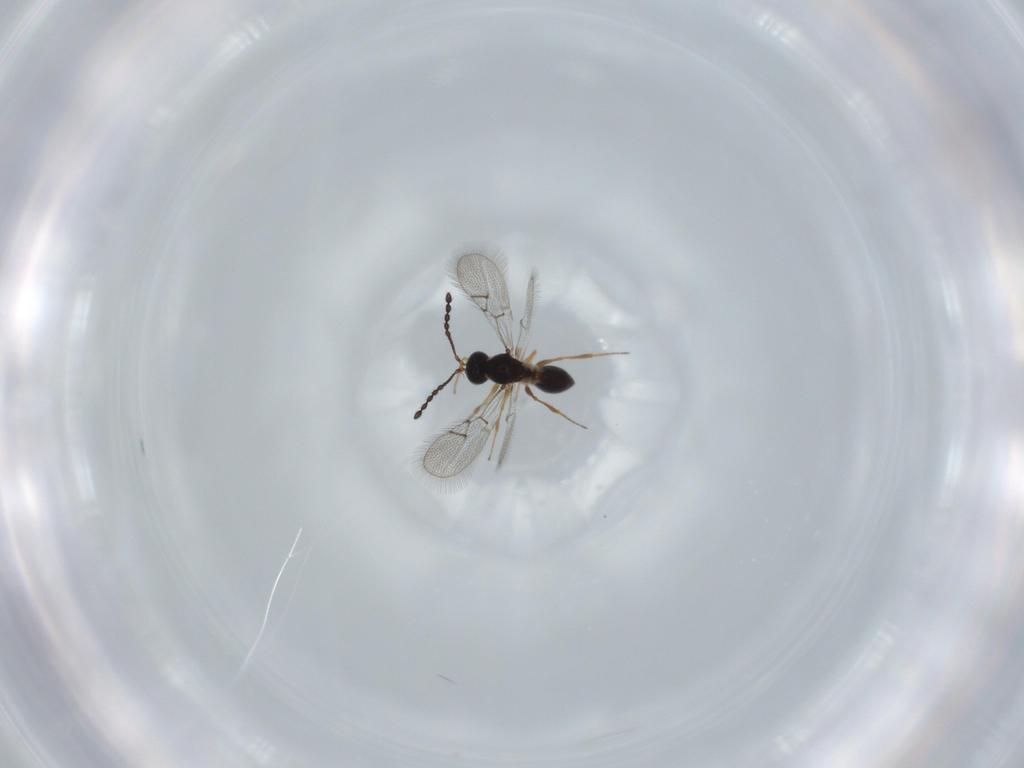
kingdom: Animalia
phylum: Arthropoda
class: Insecta
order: Hymenoptera
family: Figitidae
